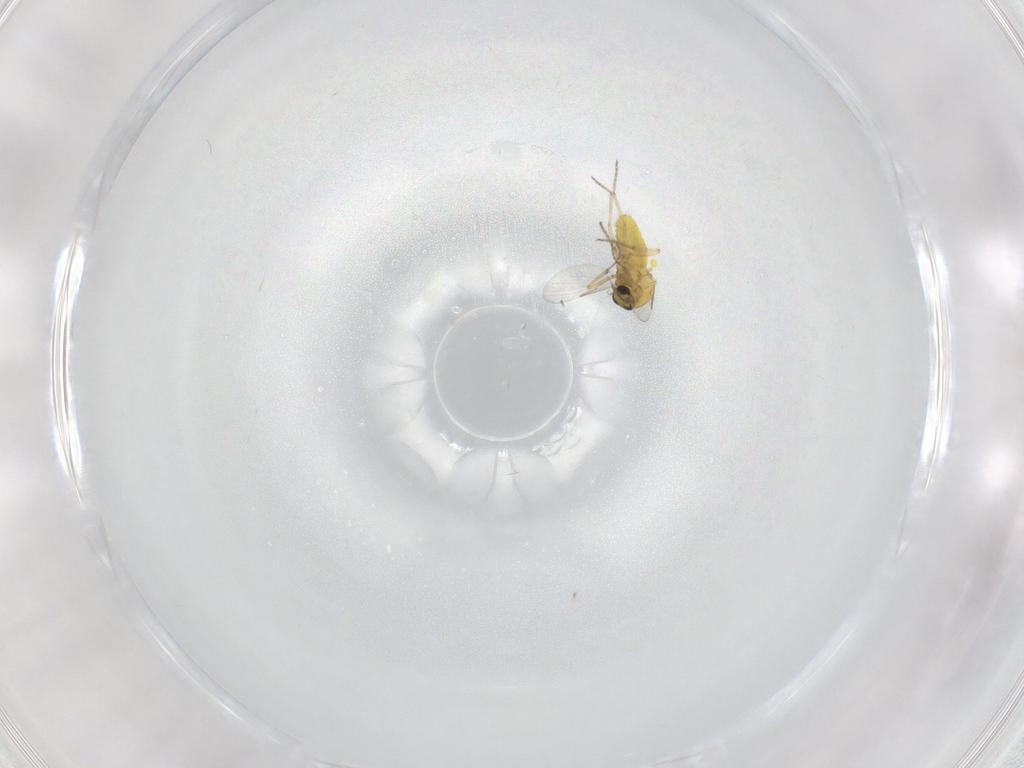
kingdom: Animalia
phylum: Arthropoda
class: Insecta
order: Diptera
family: Ceratopogonidae
